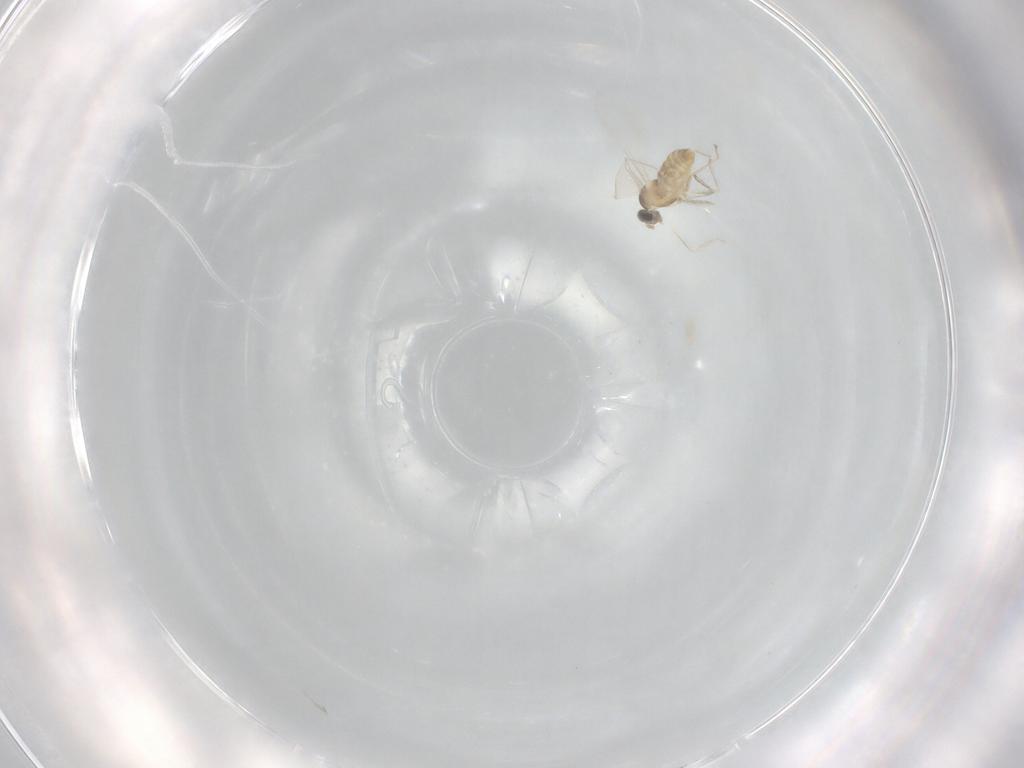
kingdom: Animalia
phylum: Arthropoda
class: Insecta
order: Diptera
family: Cecidomyiidae
